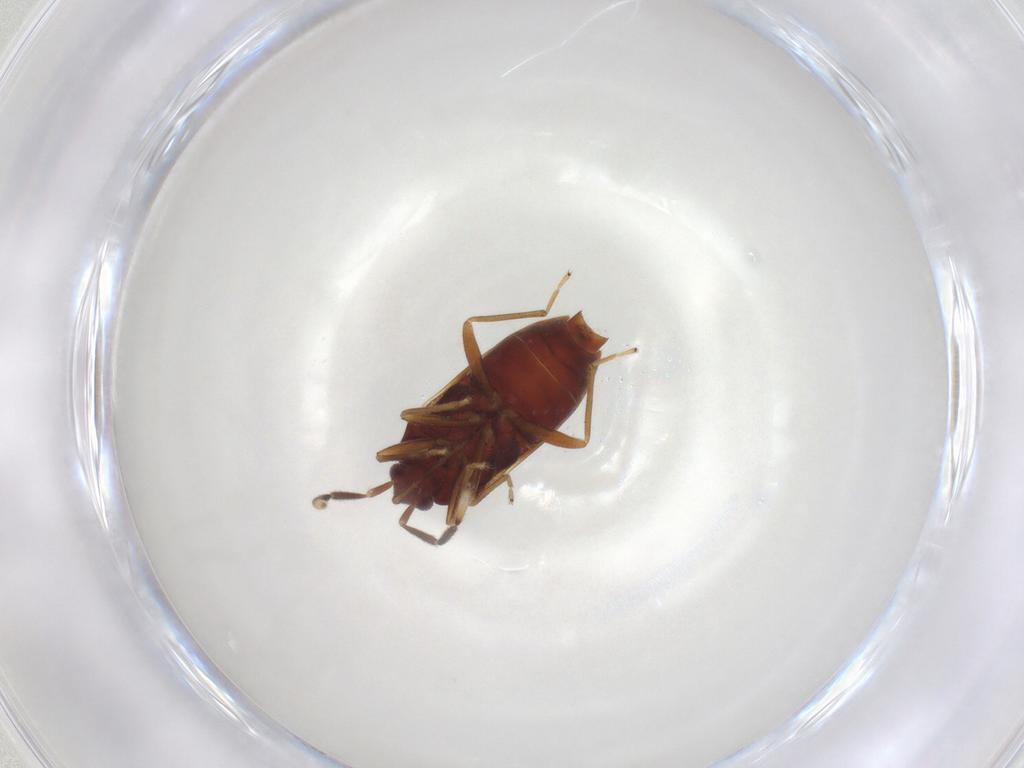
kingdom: Animalia
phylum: Arthropoda
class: Insecta
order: Hemiptera
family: Rhyparochromidae
